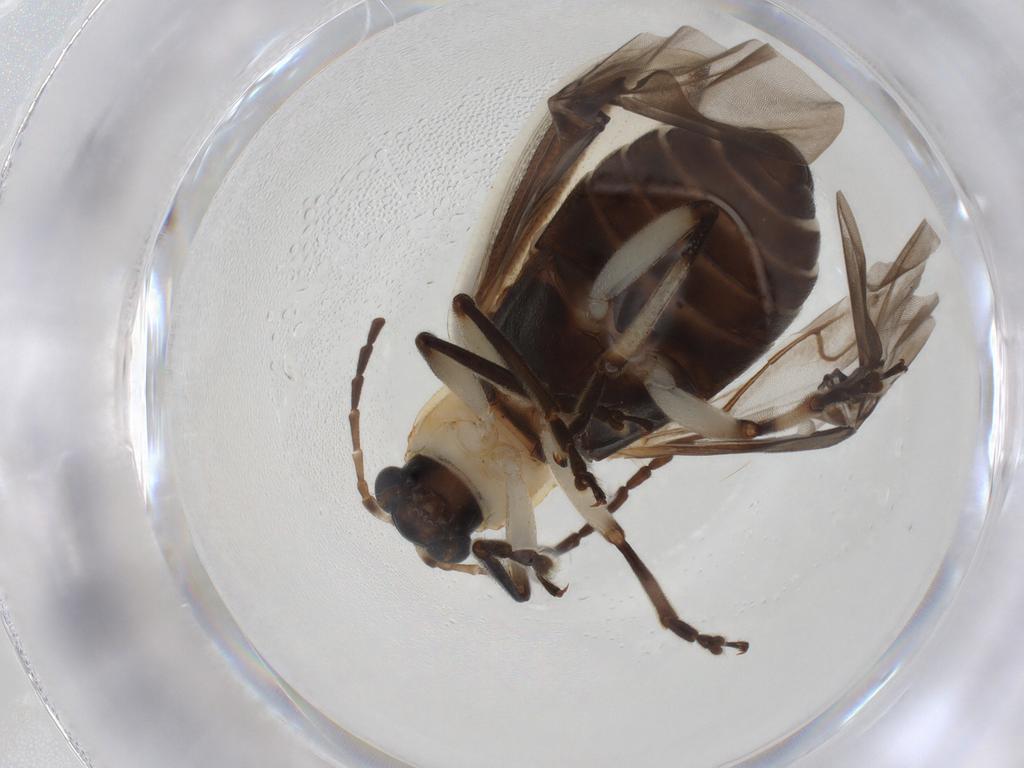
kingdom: Animalia
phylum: Arthropoda
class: Insecta
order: Coleoptera
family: Chrysomelidae
